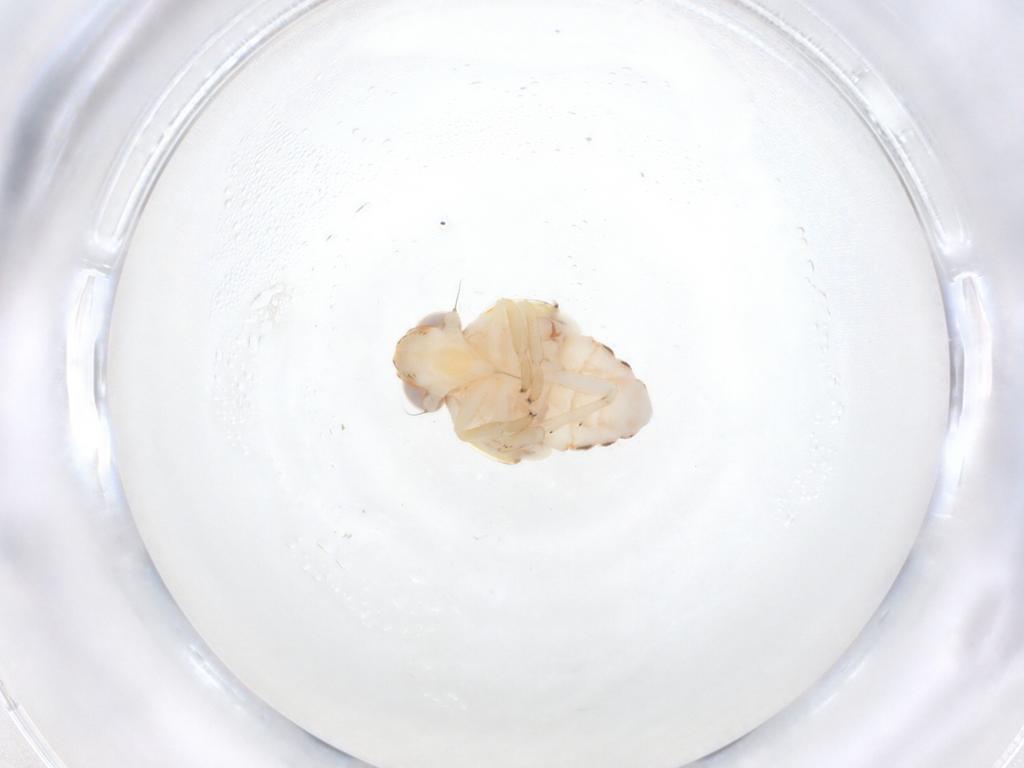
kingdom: Animalia
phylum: Arthropoda
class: Insecta
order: Hemiptera
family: Nogodinidae
